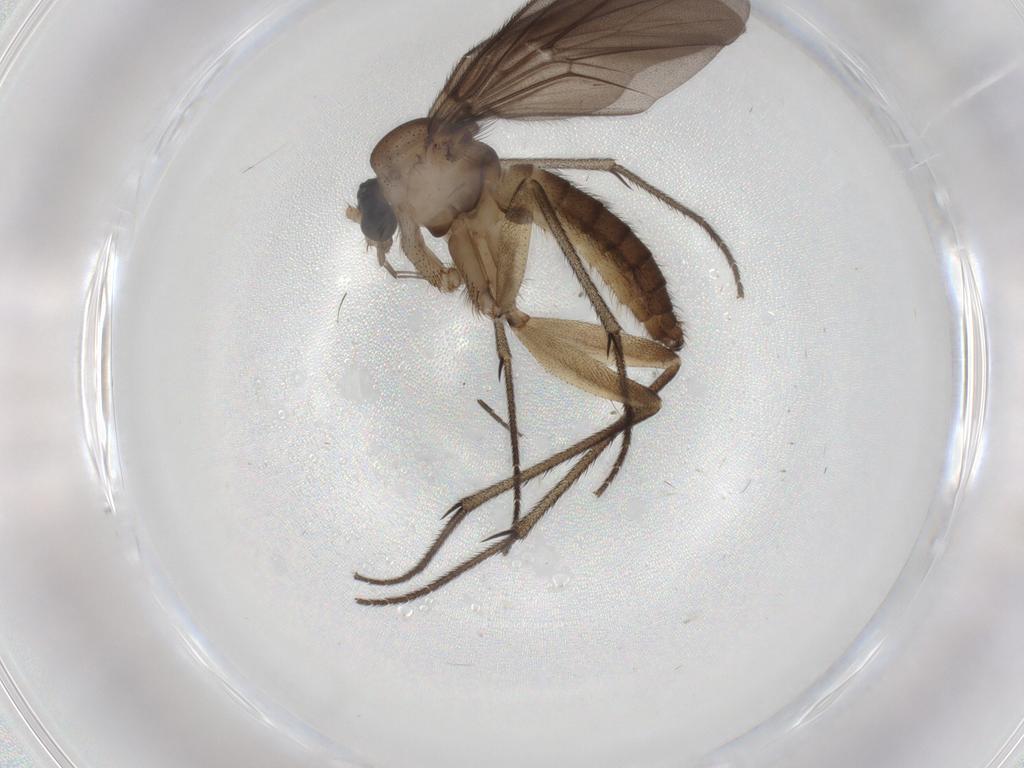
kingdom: Animalia
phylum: Arthropoda
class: Insecta
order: Diptera
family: Cecidomyiidae
